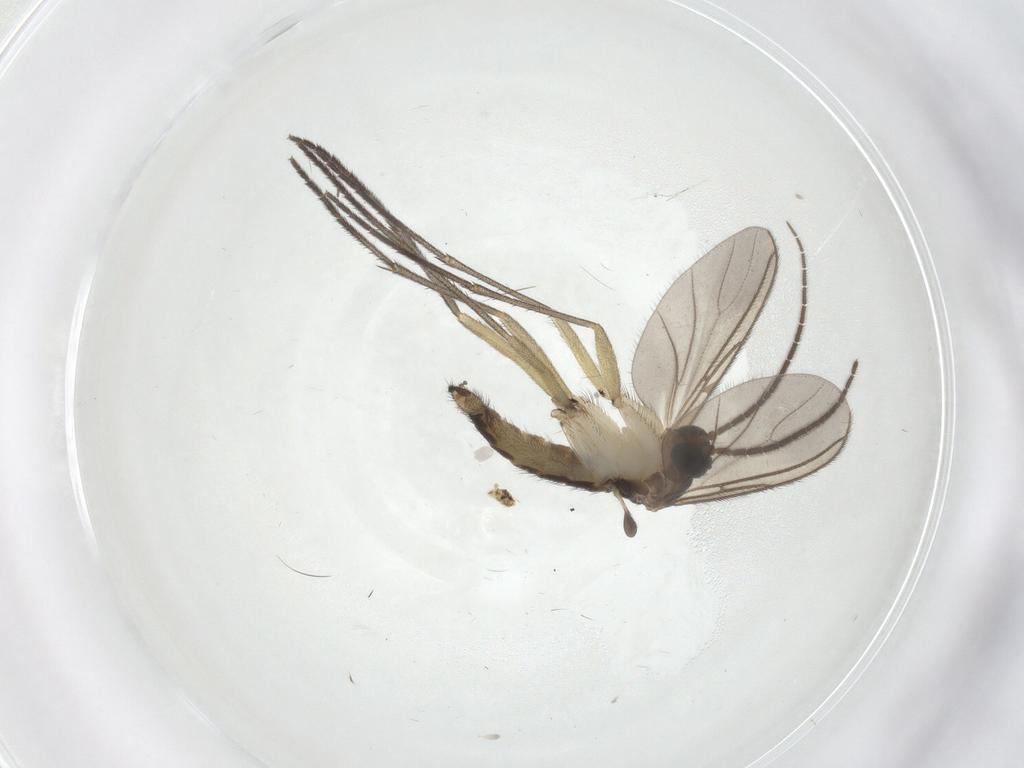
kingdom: Animalia
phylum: Arthropoda
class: Insecta
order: Diptera
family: Sciaridae
